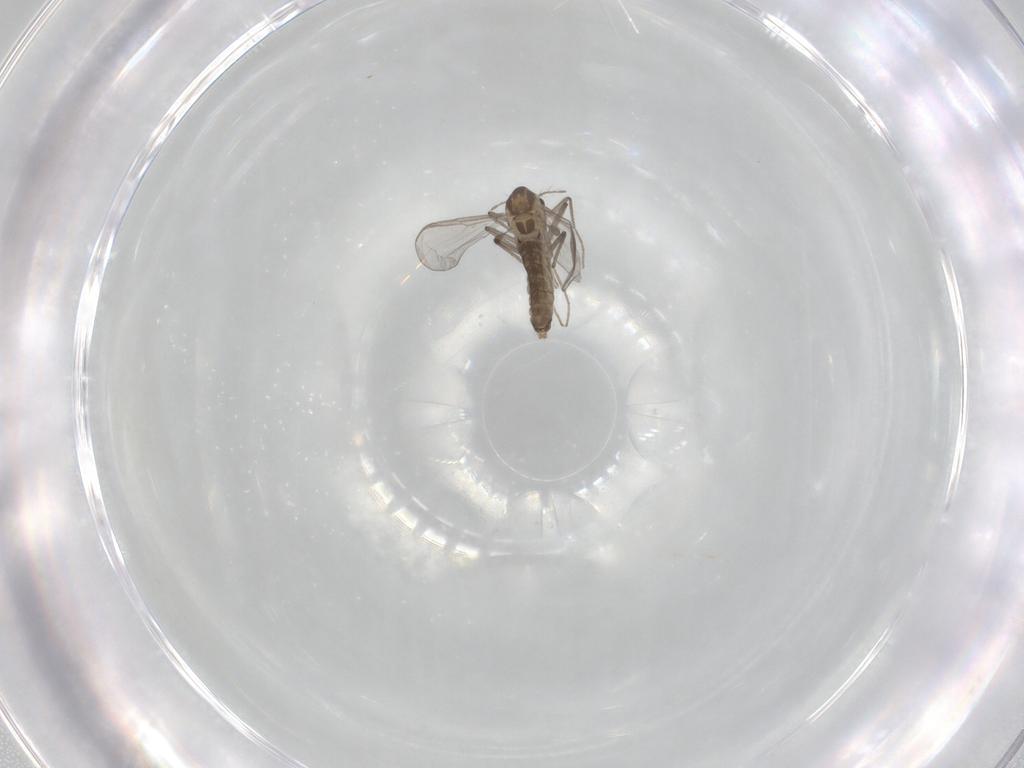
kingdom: Animalia
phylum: Arthropoda
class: Insecta
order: Diptera
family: Chironomidae
